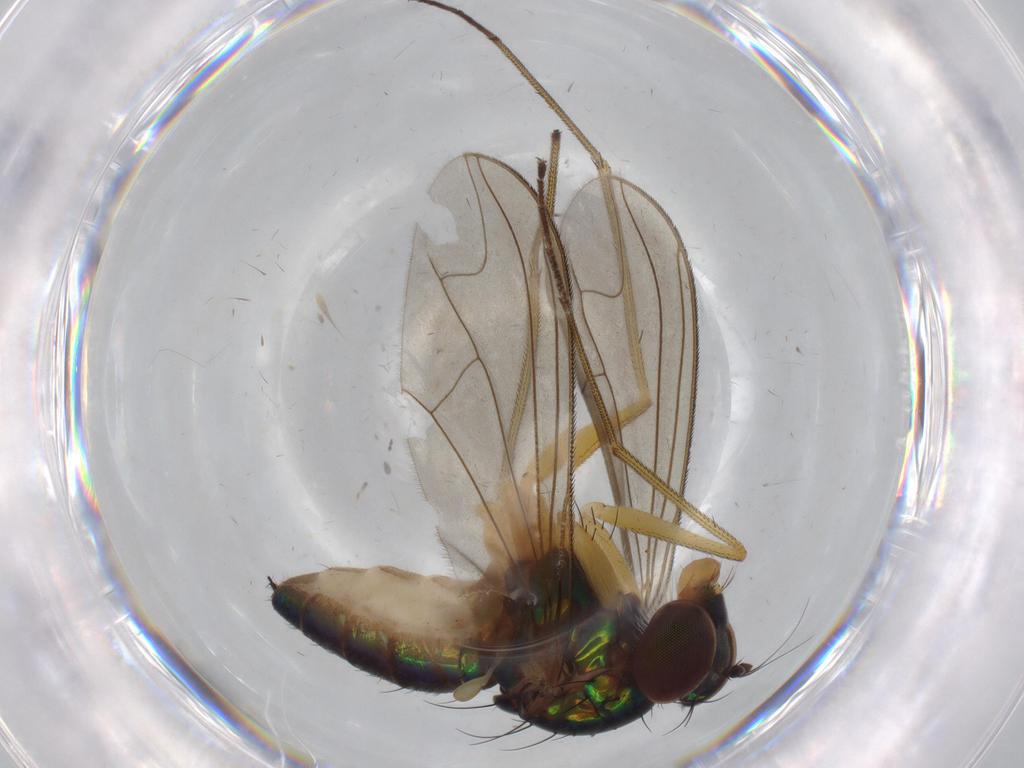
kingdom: Animalia
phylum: Arthropoda
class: Insecta
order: Diptera
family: Dolichopodidae
